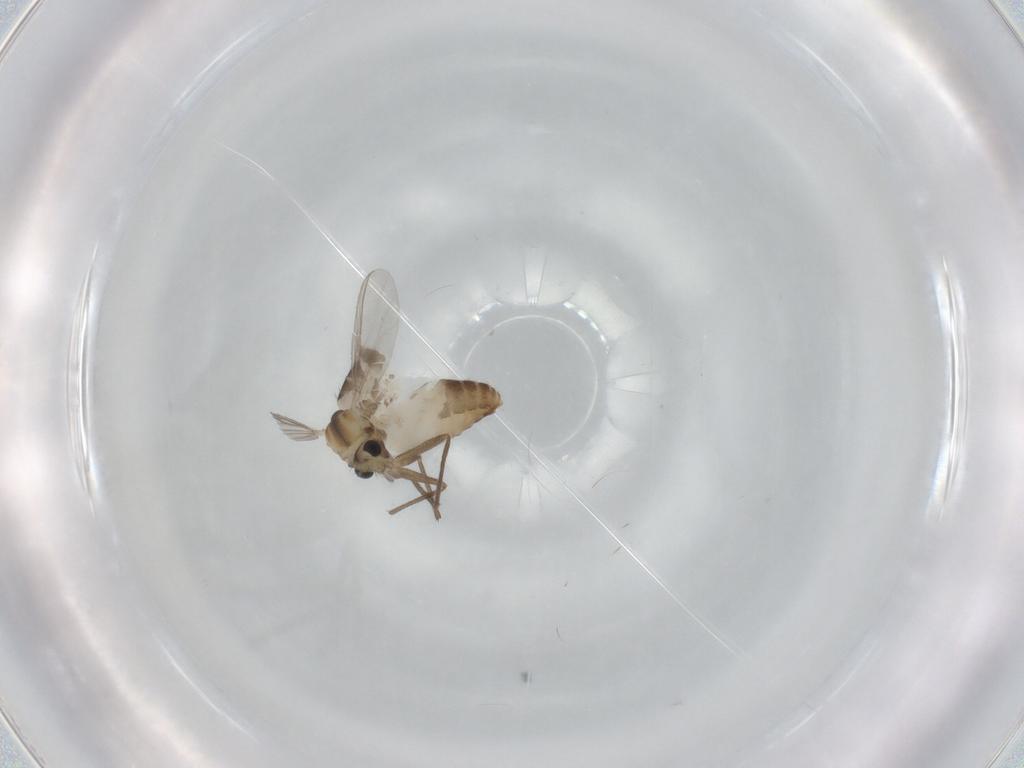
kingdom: Animalia
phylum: Arthropoda
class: Insecta
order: Diptera
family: Chironomidae
